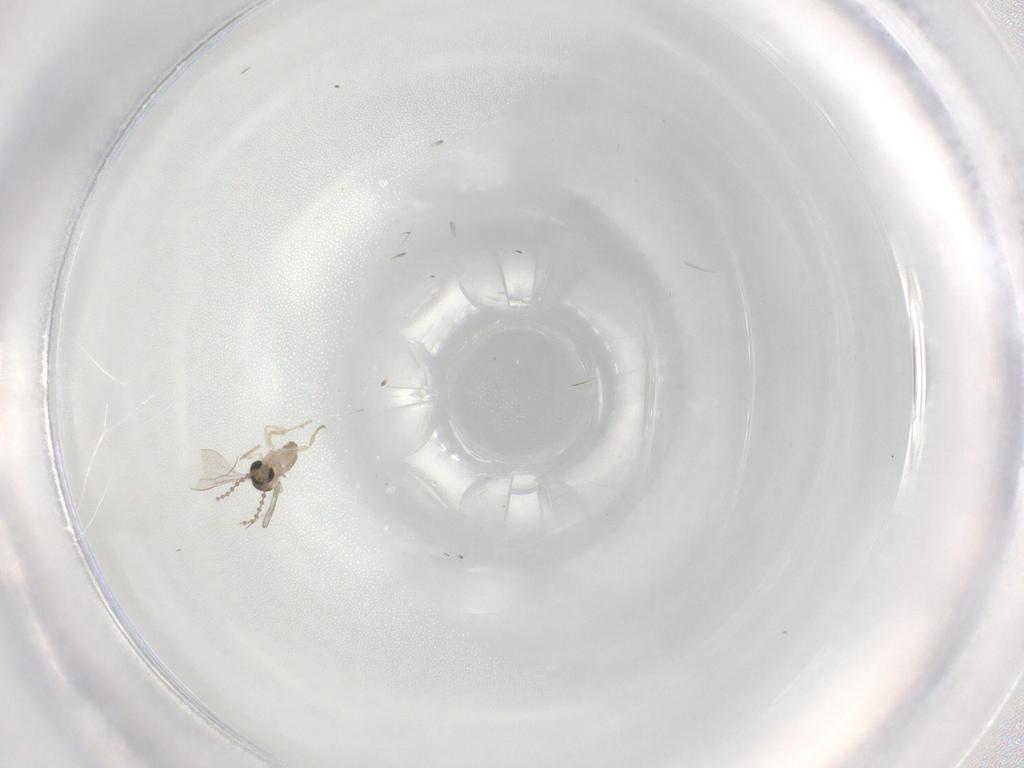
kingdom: Animalia
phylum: Arthropoda
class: Insecta
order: Diptera
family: Cecidomyiidae
